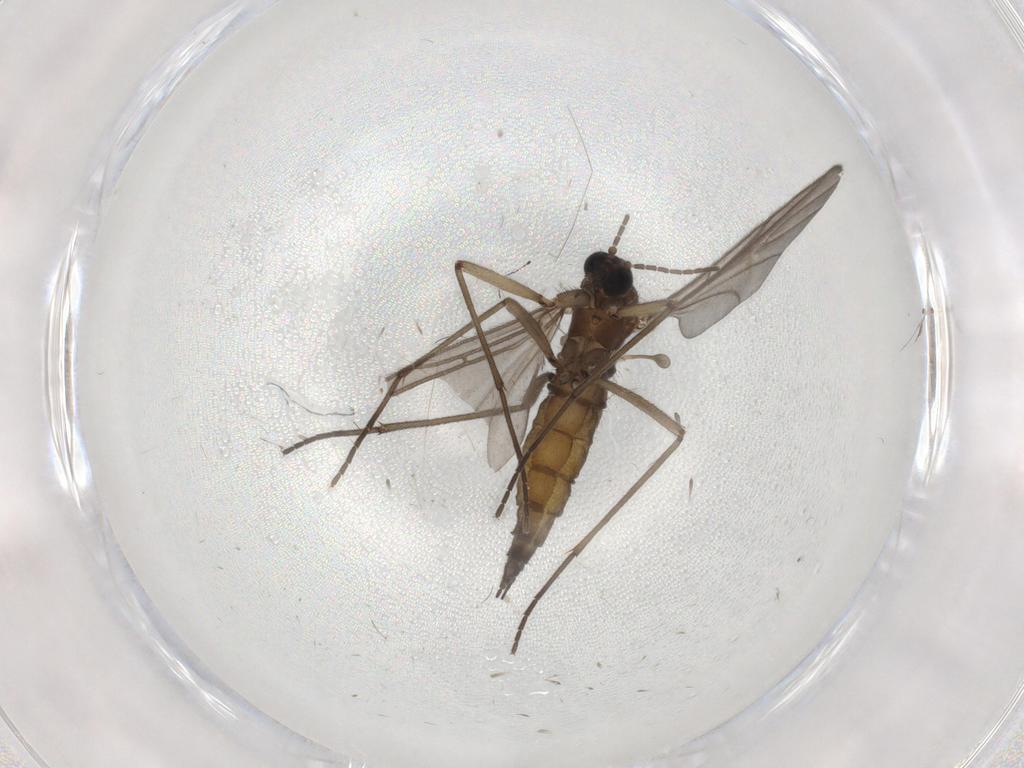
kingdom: Animalia
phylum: Arthropoda
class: Insecta
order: Diptera
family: Sciaridae
